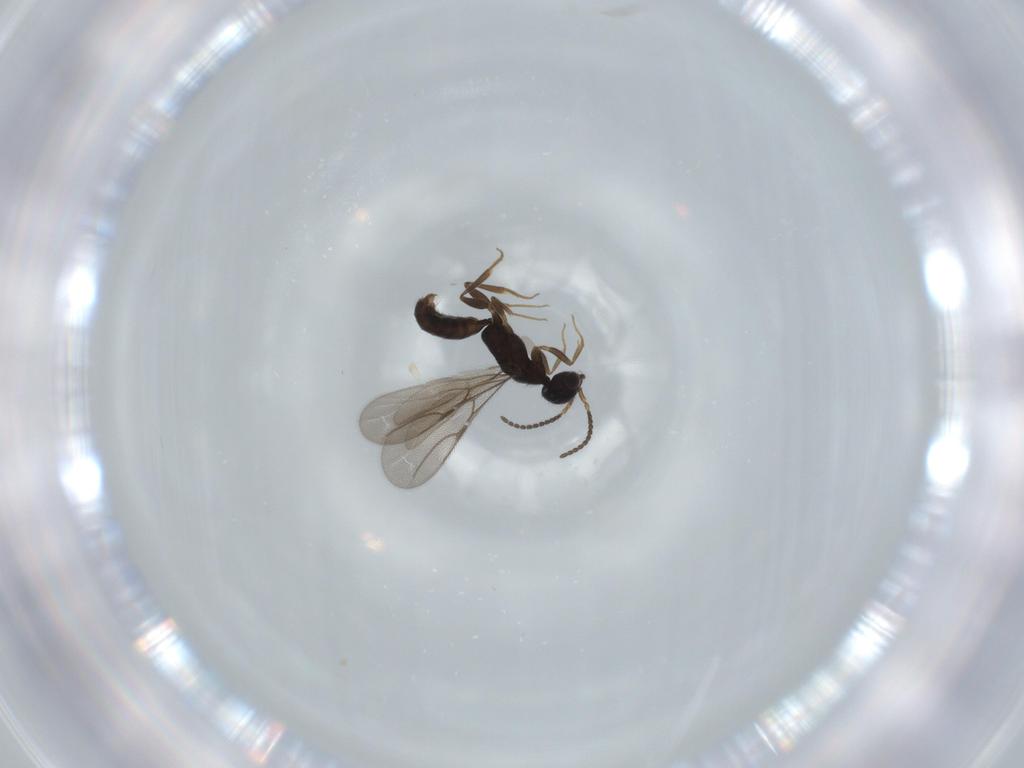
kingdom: Animalia
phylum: Arthropoda
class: Insecta
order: Hymenoptera
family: Bethylidae
